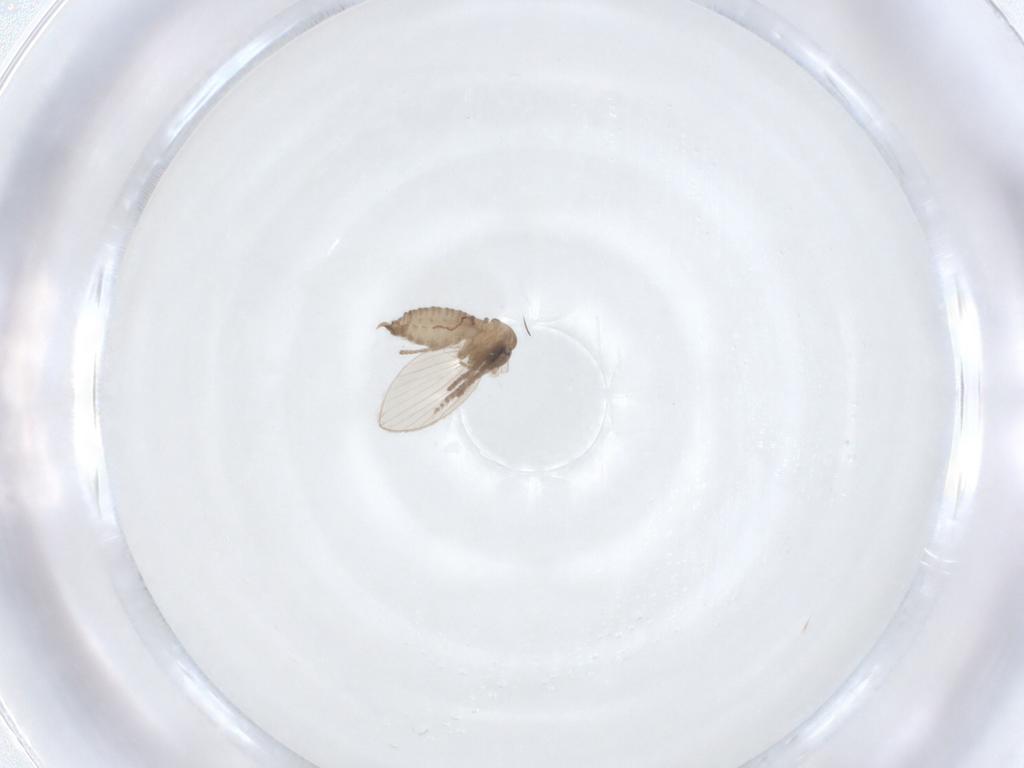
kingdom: Animalia
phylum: Arthropoda
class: Insecta
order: Diptera
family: Psychodidae
